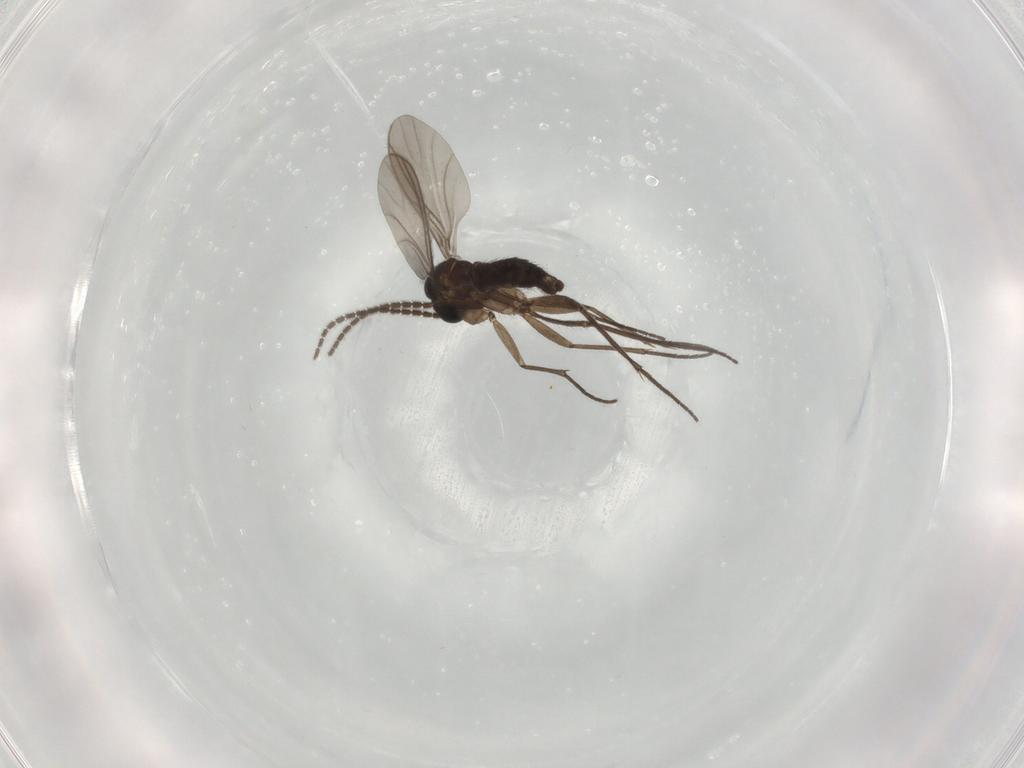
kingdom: Animalia
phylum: Arthropoda
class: Insecta
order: Diptera
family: Sciaridae
